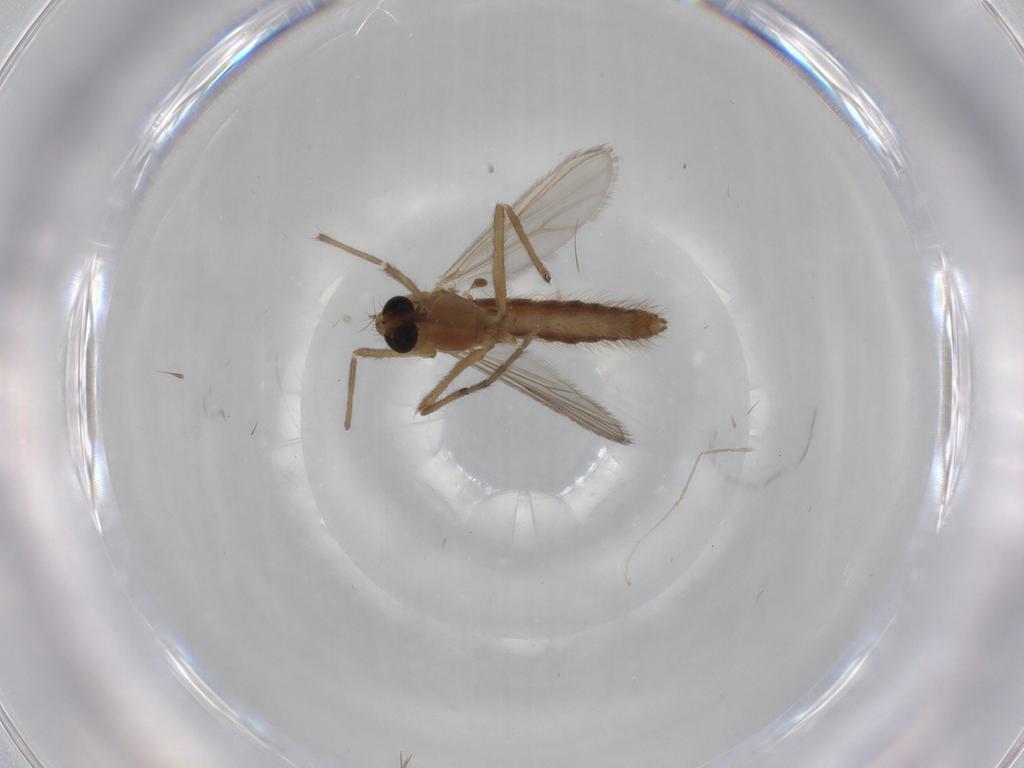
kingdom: Animalia
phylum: Arthropoda
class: Insecta
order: Diptera
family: Chironomidae
